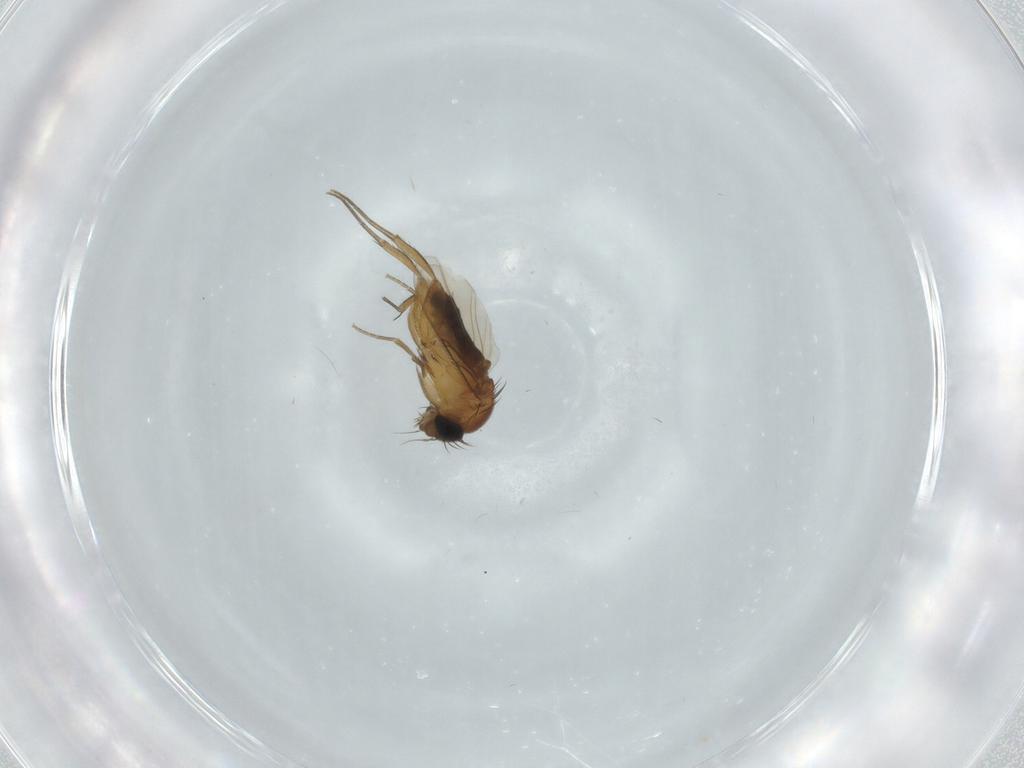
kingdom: Animalia
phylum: Arthropoda
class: Insecta
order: Diptera
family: Phoridae
